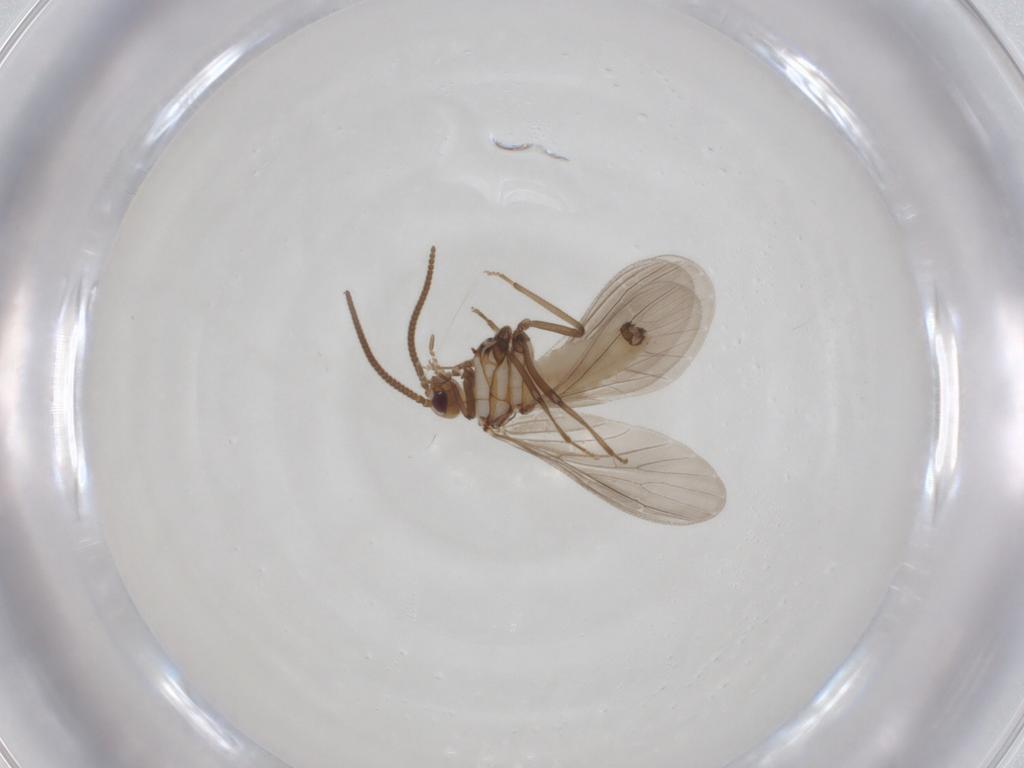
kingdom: Animalia
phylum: Arthropoda
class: Insecta
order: Neuroptera
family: Coniopterygidae
